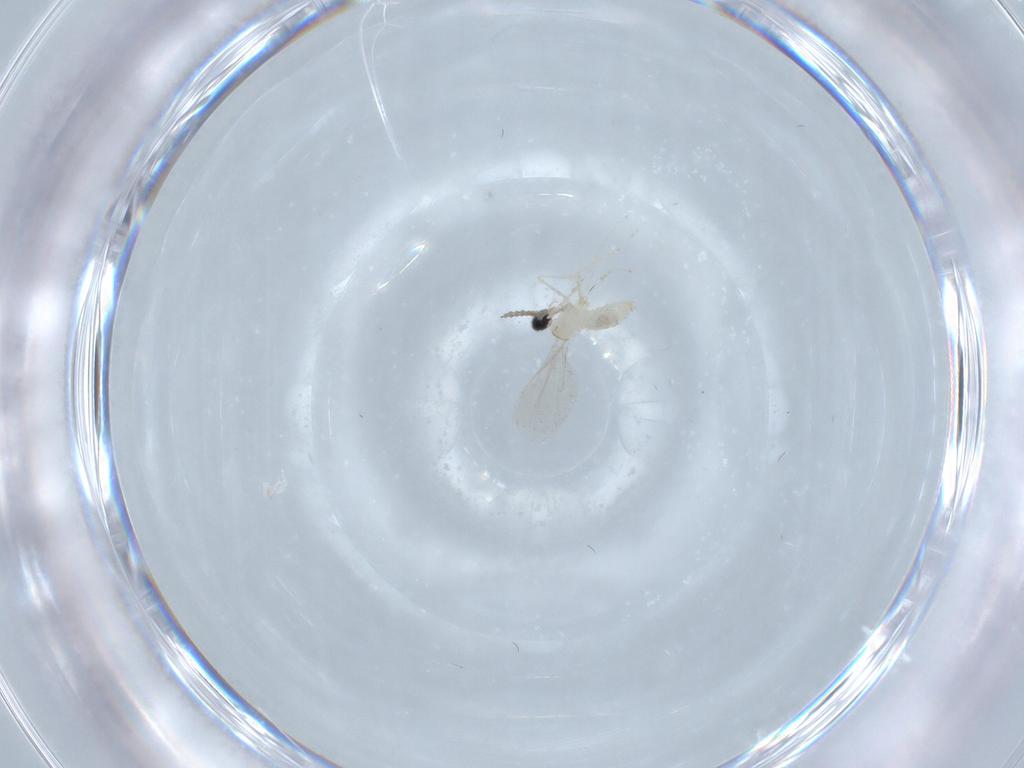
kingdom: Animalia
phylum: Arthropoda
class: Insecta
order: Diptera
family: Cecidomyiidae
